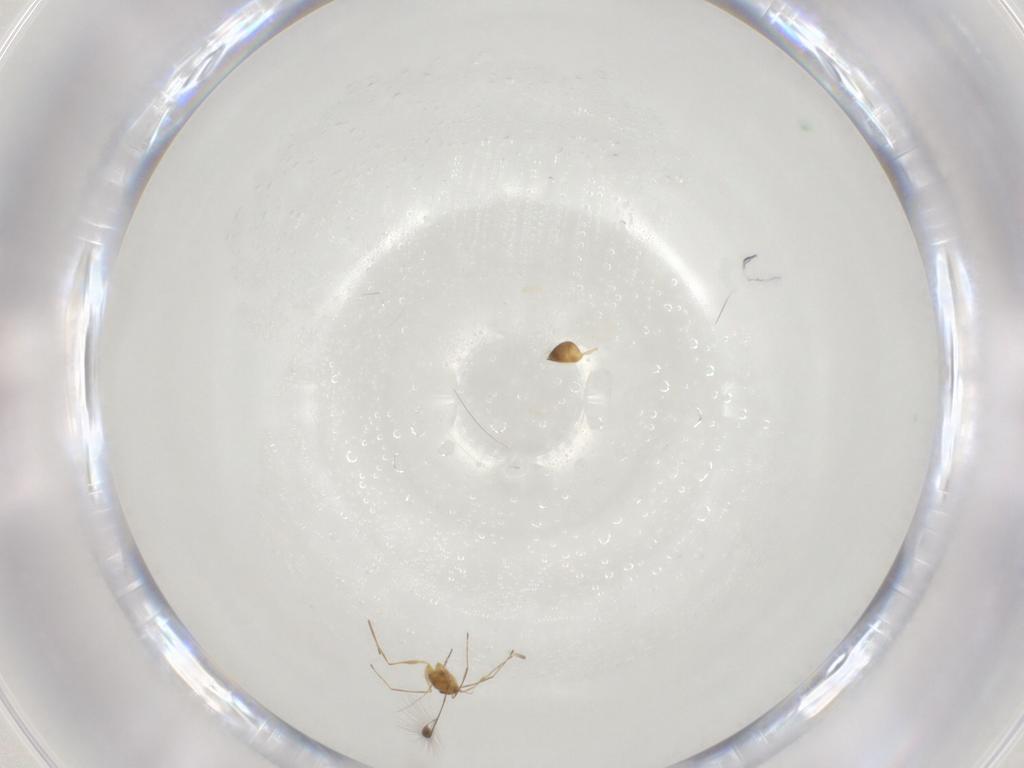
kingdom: Animalia
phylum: Arthropoda
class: Insecta
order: Hymenoptera
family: Mymaridae
